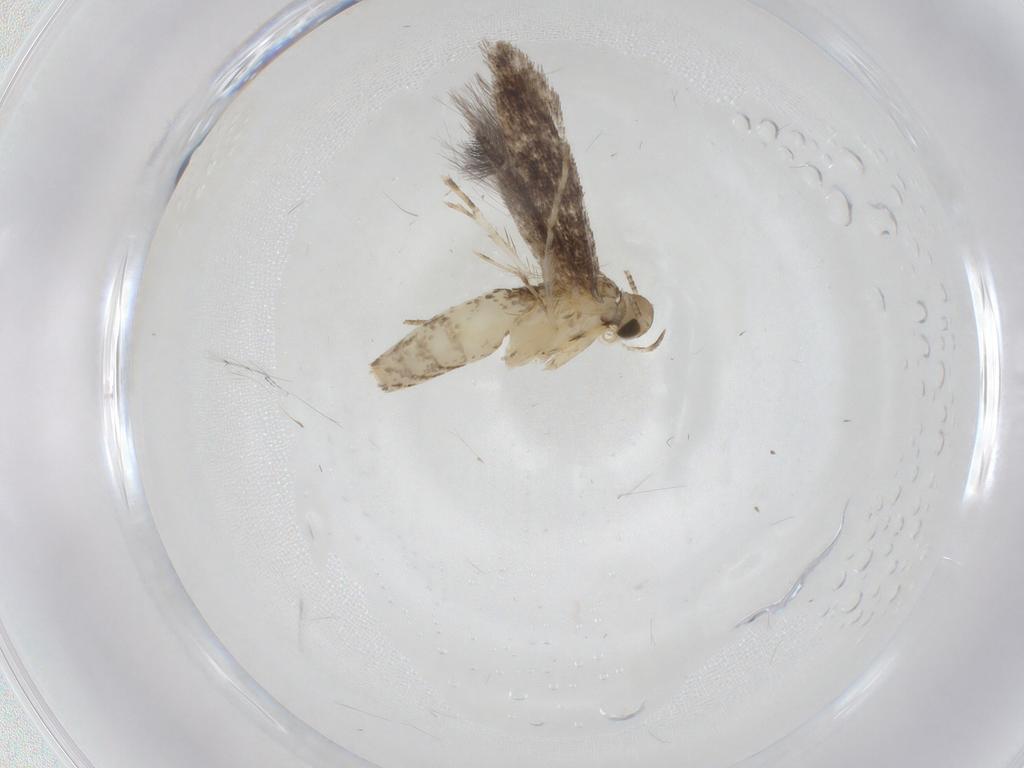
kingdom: Animalia
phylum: Arthropoda
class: Insecta
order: Lepidoptera
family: Gracillariidae
